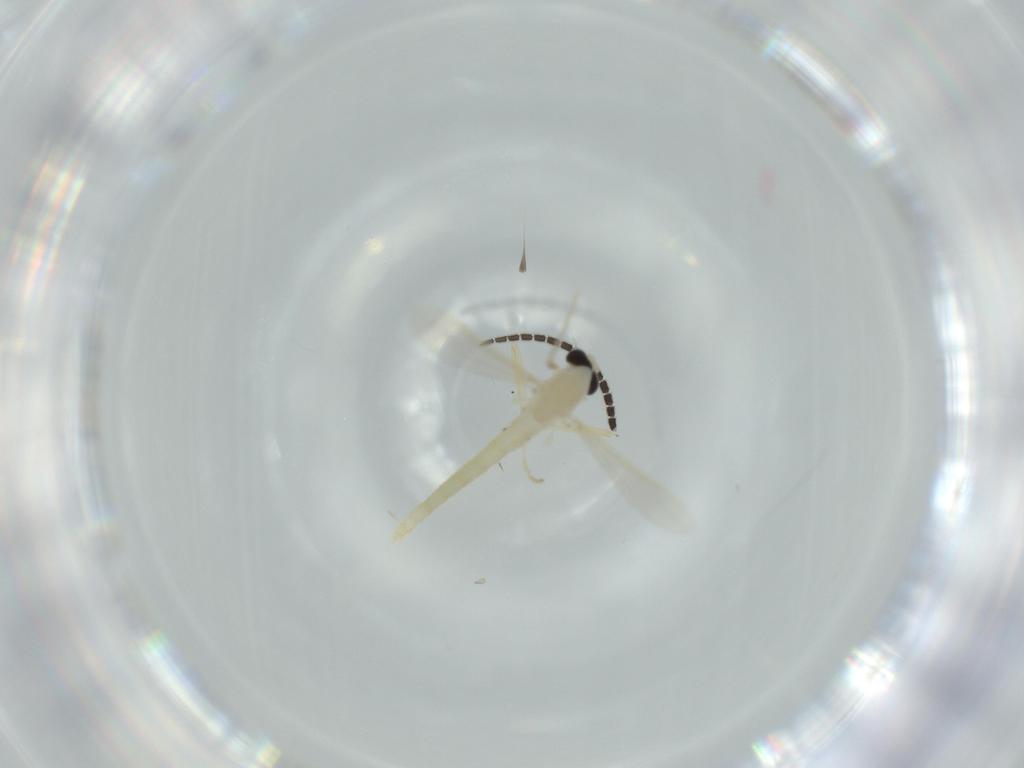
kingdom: Animalia
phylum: Arthropoda
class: Insecta
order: Diptera
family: Chironomidae
